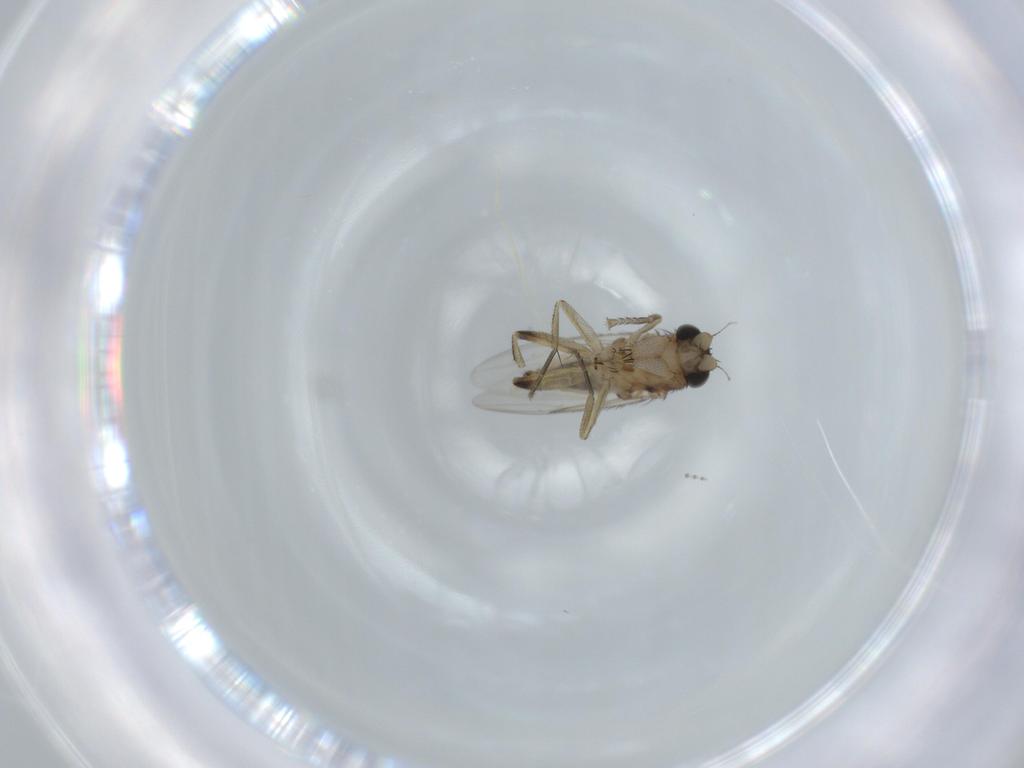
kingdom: Animalia
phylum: Arthropoda
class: Insecta
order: Diptera
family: Phoridae
